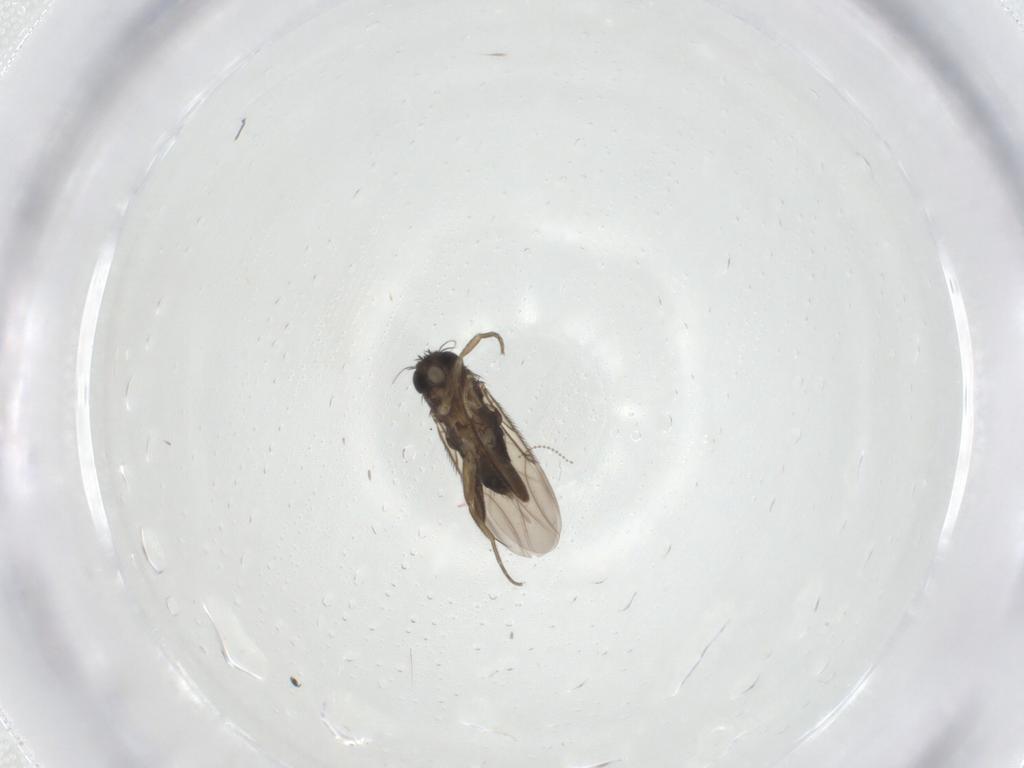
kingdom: Animalia
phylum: Arthropoda
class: Insecta
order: Diptera
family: Phoridae
